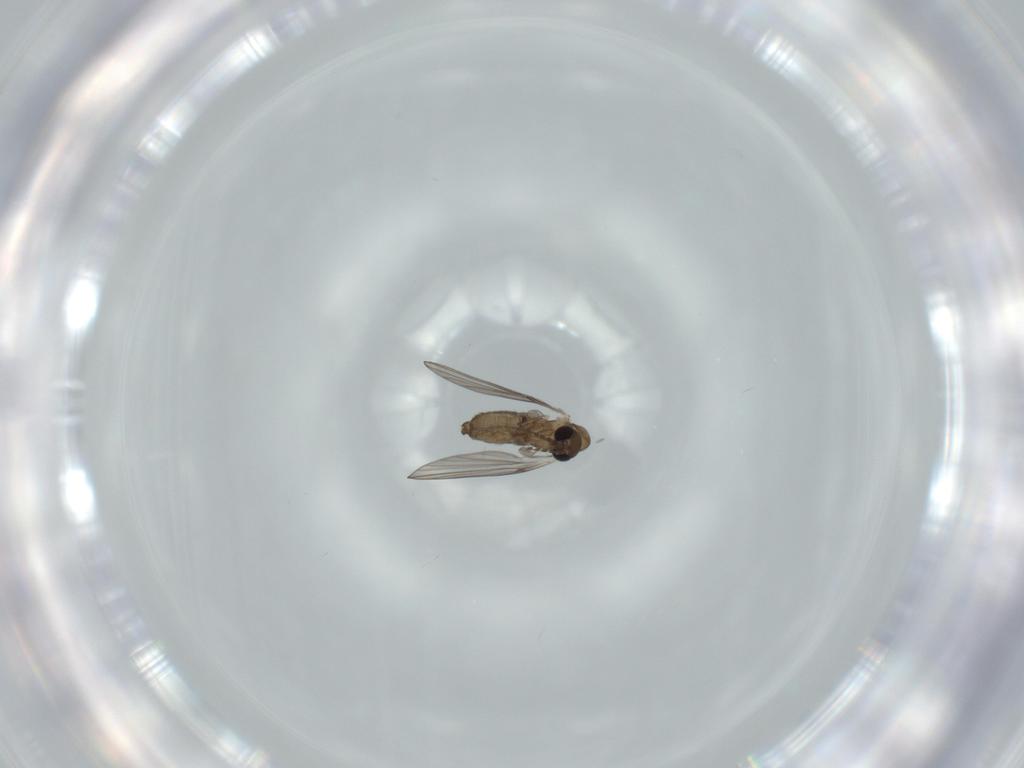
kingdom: Animalia
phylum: Arthropoda
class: Insecta
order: Diptera
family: Psychodidae
